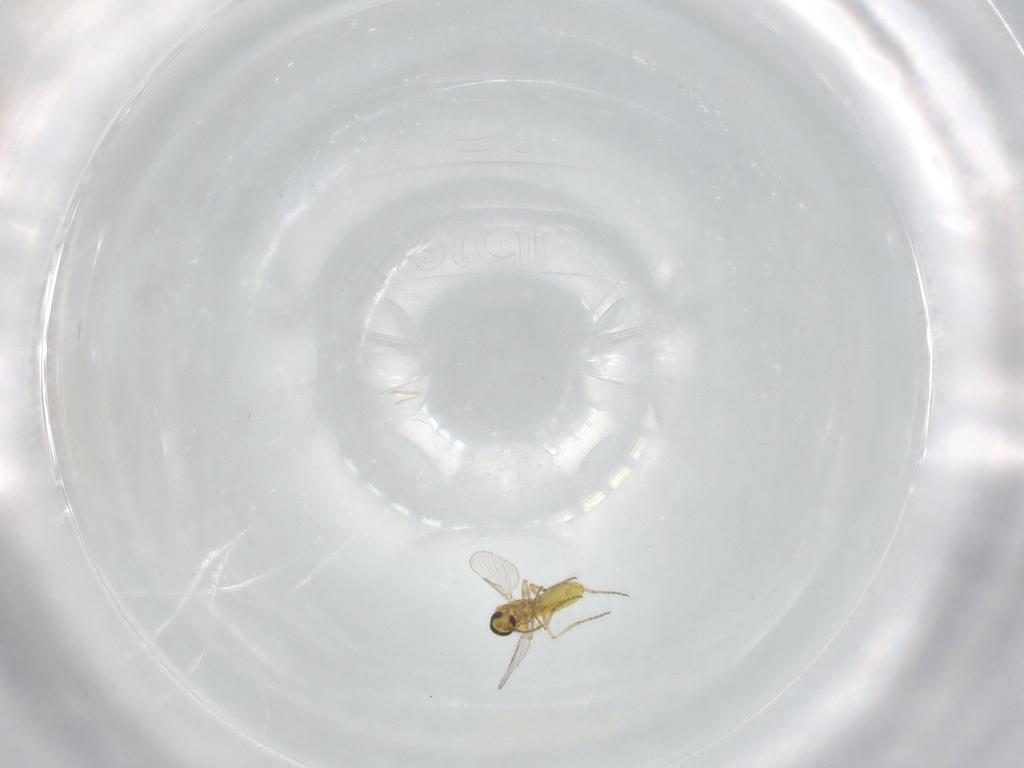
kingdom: Animalia
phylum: Arthropoda
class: Insecta
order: Diptera
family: Ceratopogonidae
